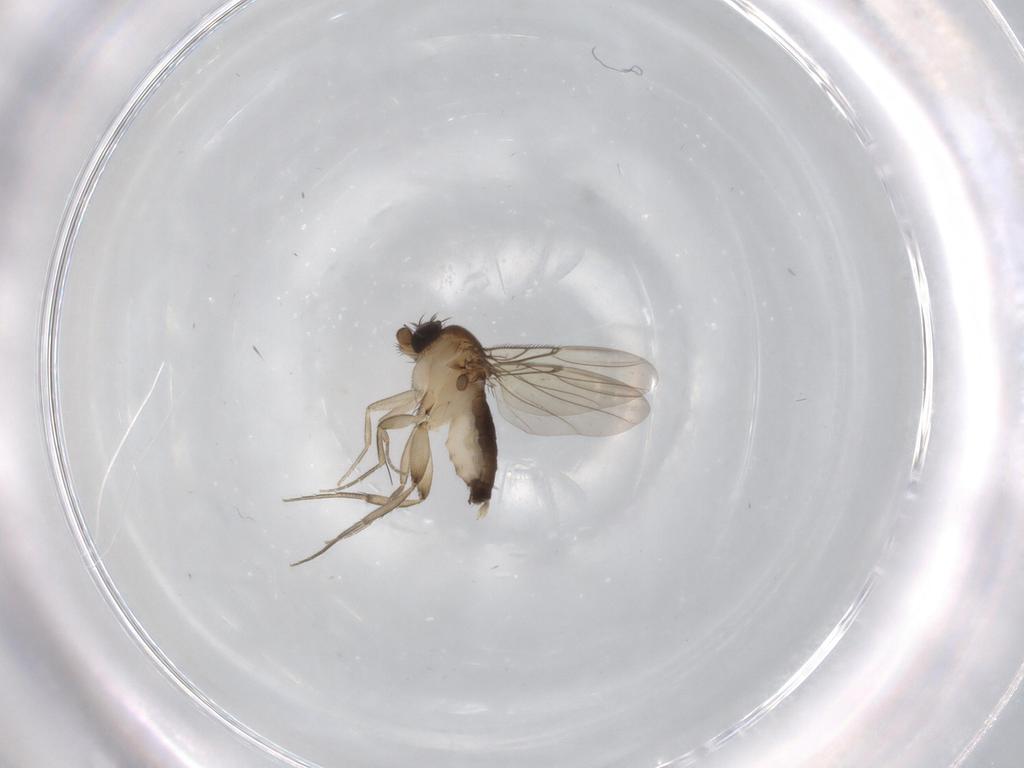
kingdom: Animalia
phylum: Arthropoda
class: Insecta
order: Diptera
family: Phoridae
